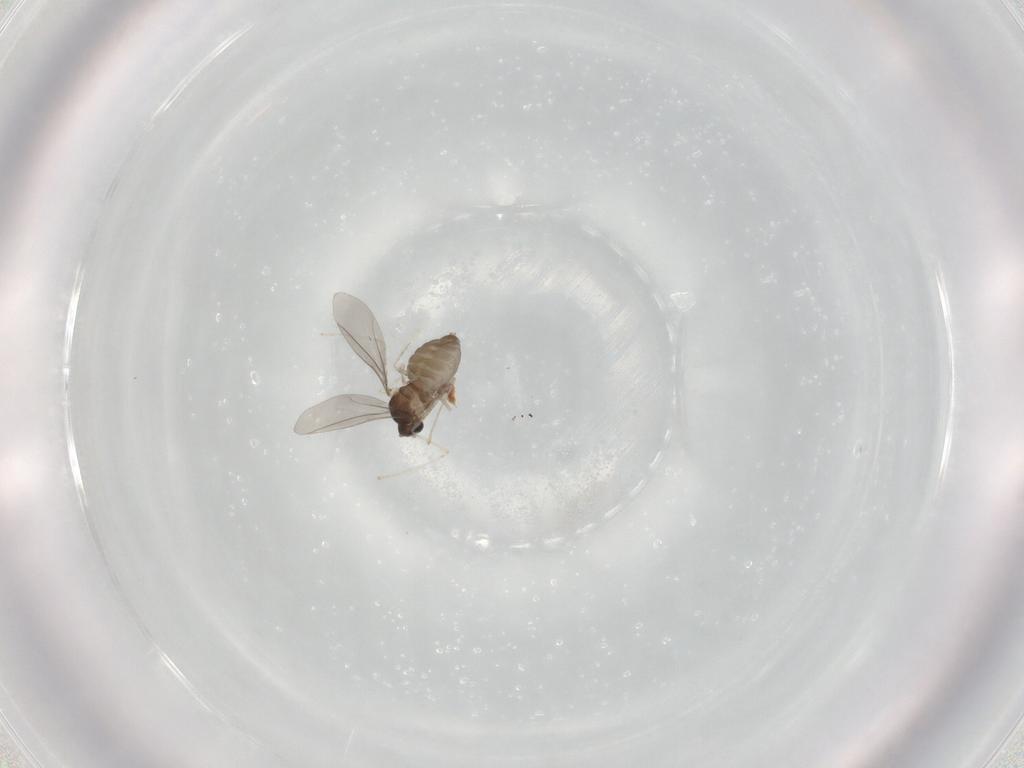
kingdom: Animalia
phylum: Arthropoda
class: Insecta
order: Diptera
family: Cecidomyiidae
